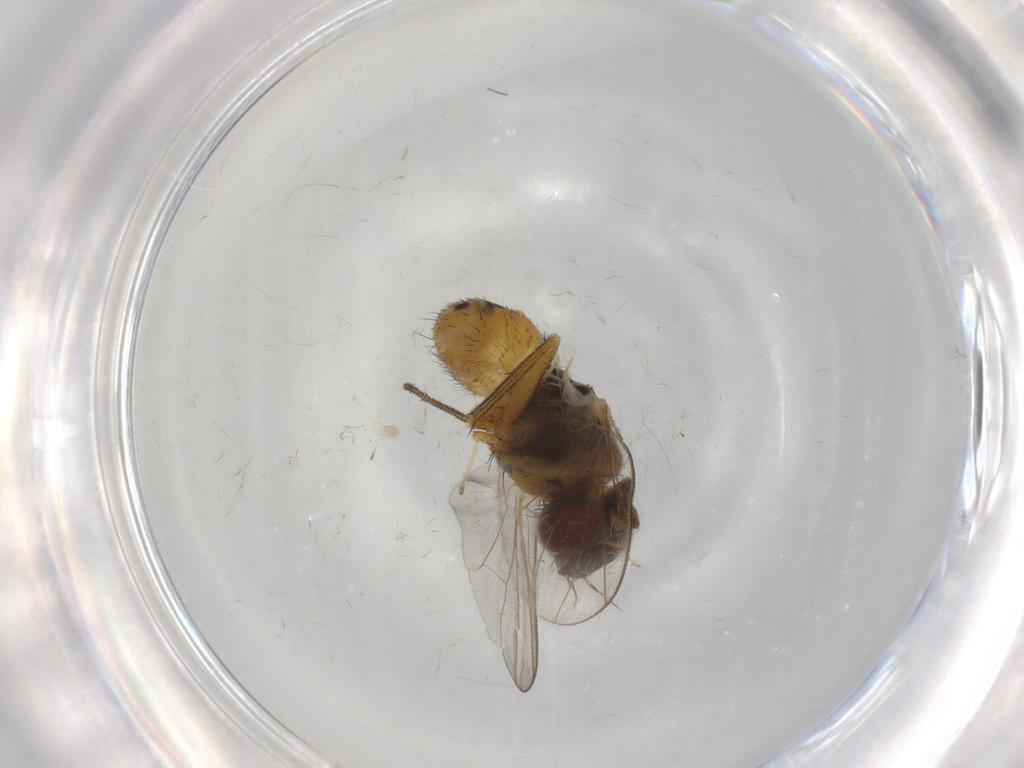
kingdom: Animalia
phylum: Arthropoda
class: Insecta
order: Diptera
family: Muscidae
